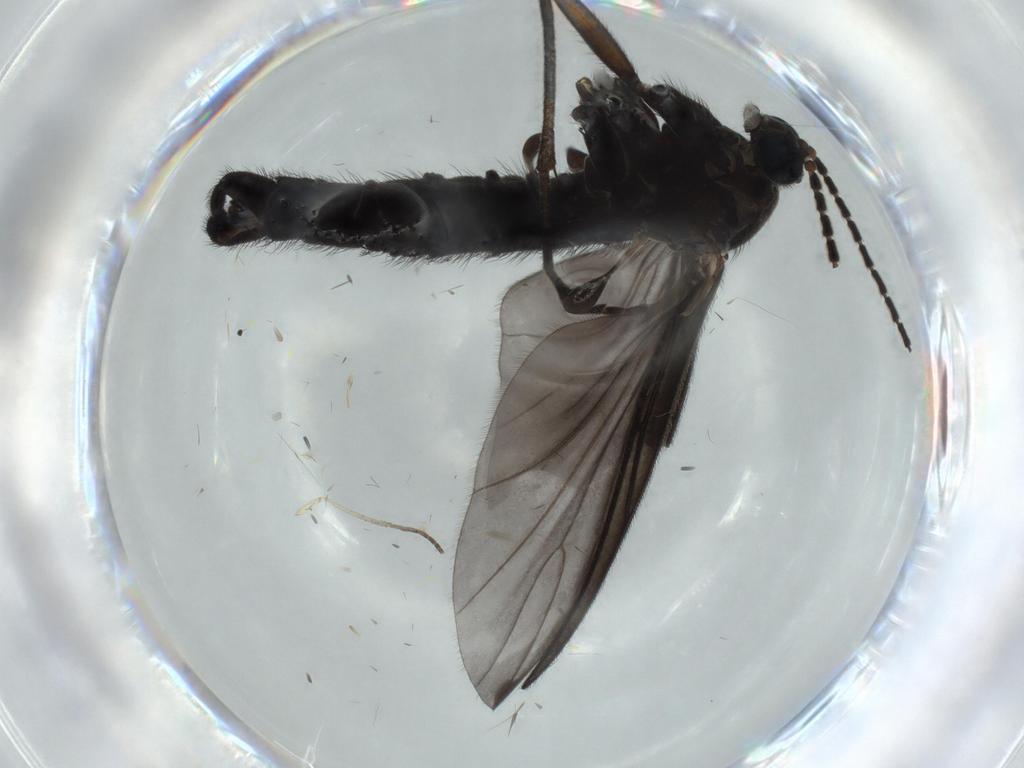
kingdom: Animalia
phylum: Arthropoda
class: Insecta
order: Diptera
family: Sciaridae
